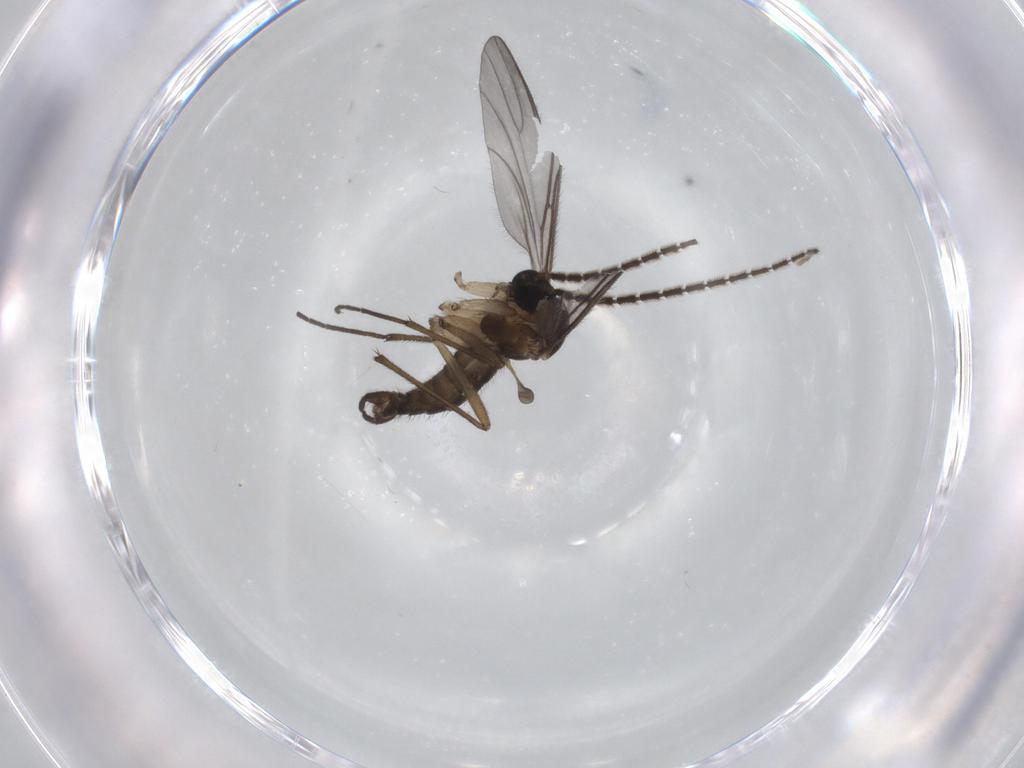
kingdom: Animalia
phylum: Arthropoda
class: Insecta
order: Diptera
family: Sciaridae
